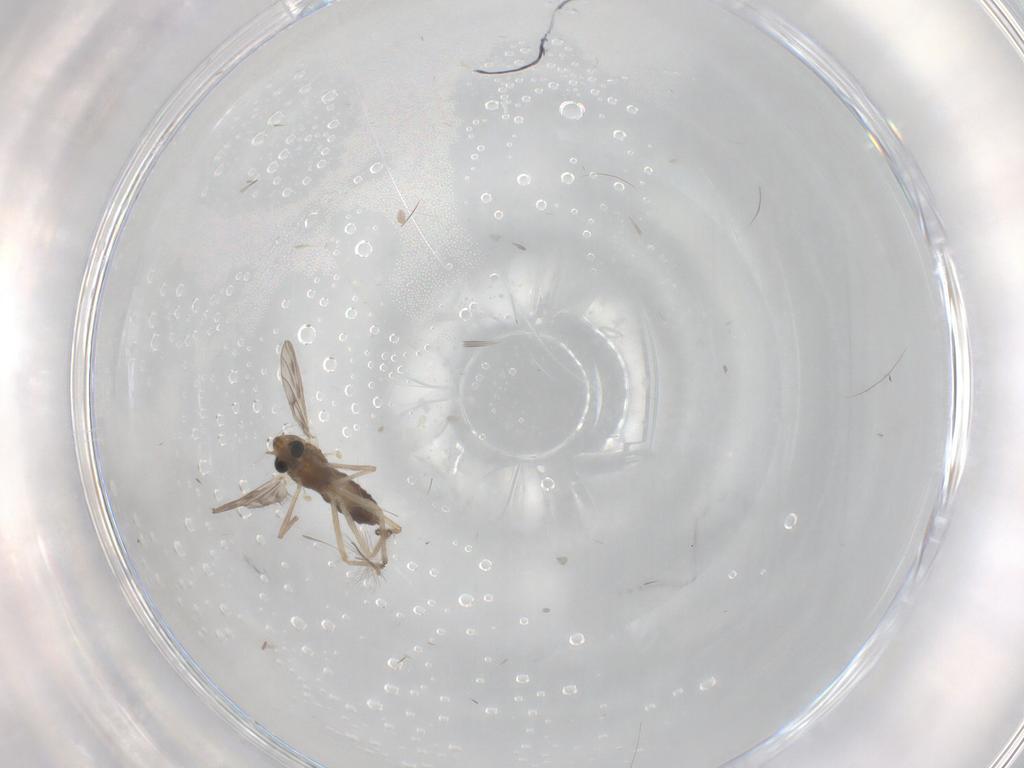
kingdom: Animalia
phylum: Arthropoda
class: Insecta
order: Diptera
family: Chironomidae
